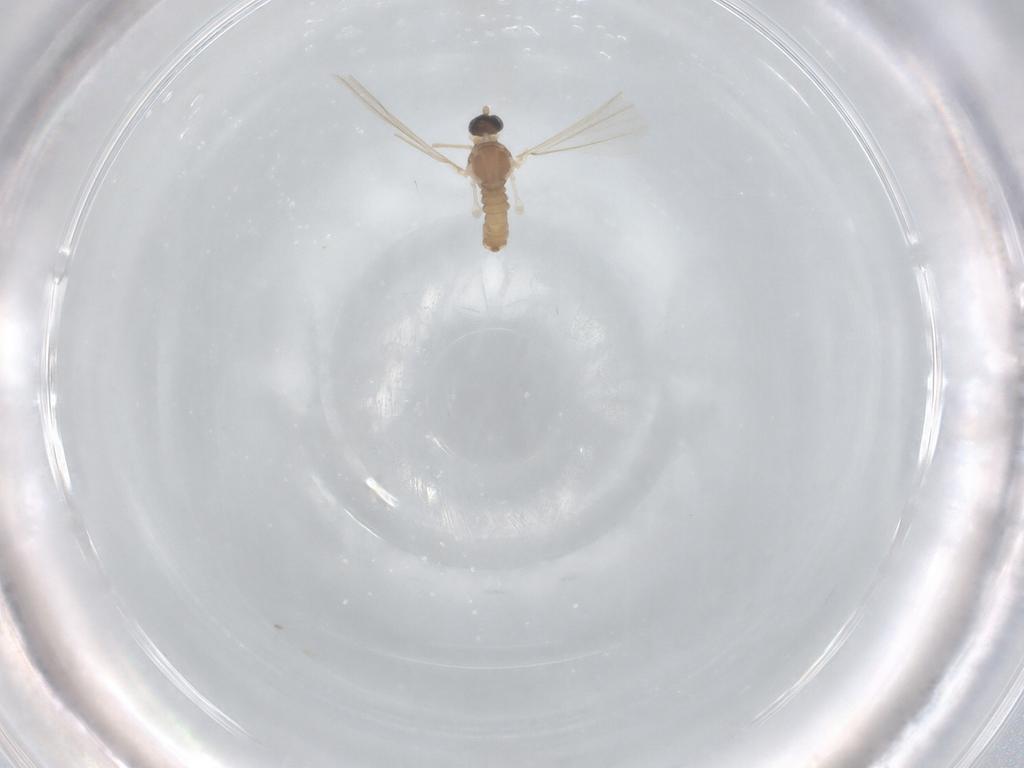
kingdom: Animalia
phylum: Arthropoda
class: Insecta
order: Diptera
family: Cecidomyiidae
